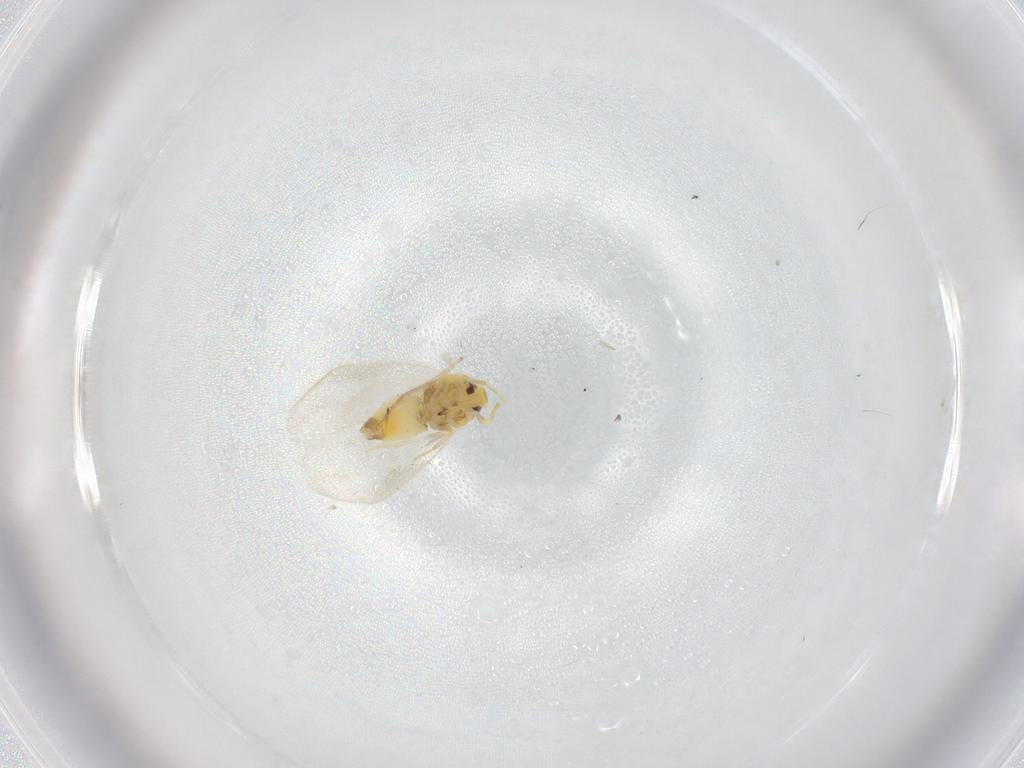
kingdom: Animalia
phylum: Arthropoda
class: Insecta
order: Hemiptera
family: Aleyrodidae
